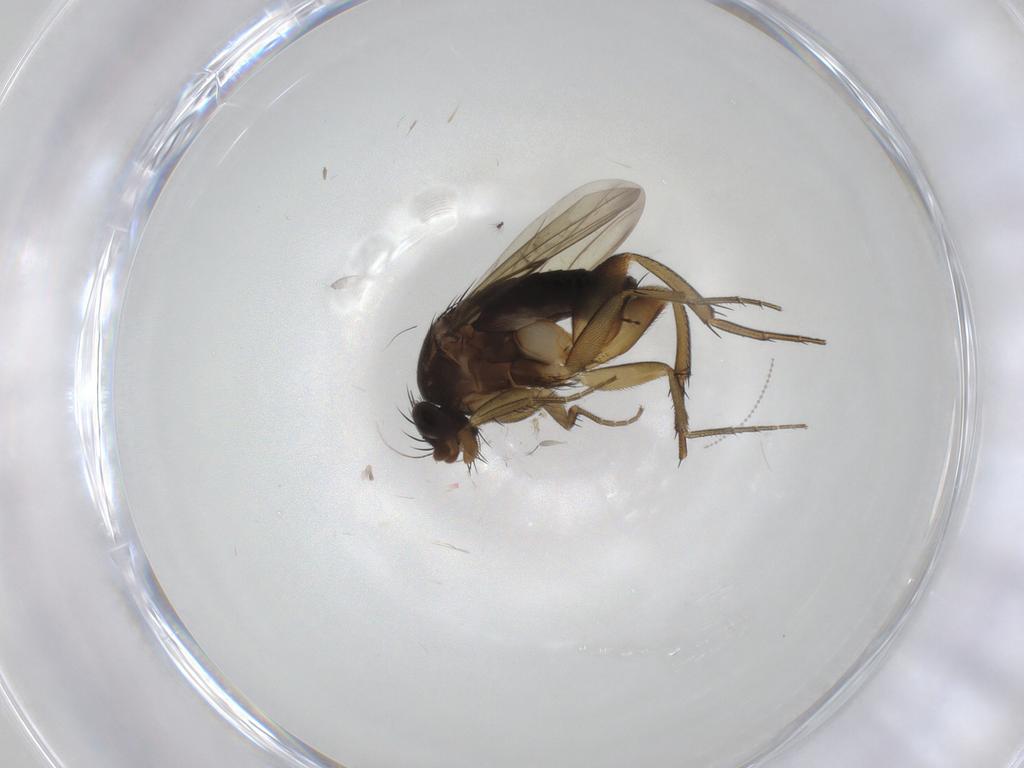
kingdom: Animalia
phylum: Arthropoda
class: Insecta
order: Diptera
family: Phoridae
